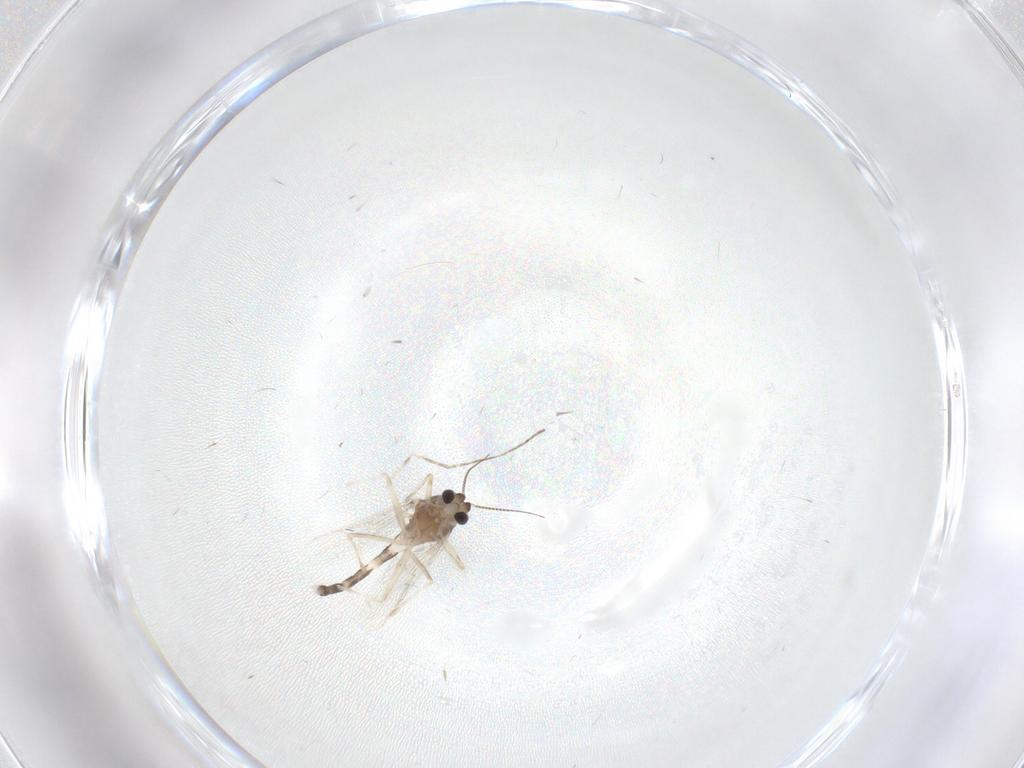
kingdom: Animalia
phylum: Arthropoda
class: Insecta
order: Diptera
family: Cecidomyiidae
